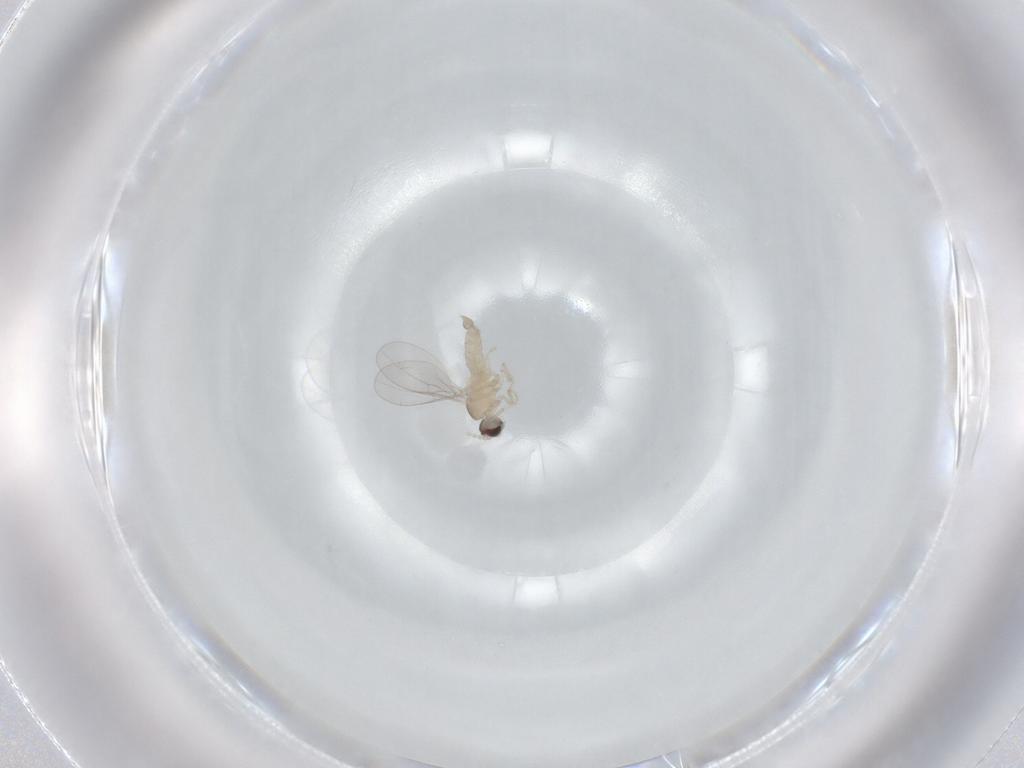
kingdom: Animalia
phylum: Arthropoda
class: Insecta
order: Diptera
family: Cecidomyiidae
